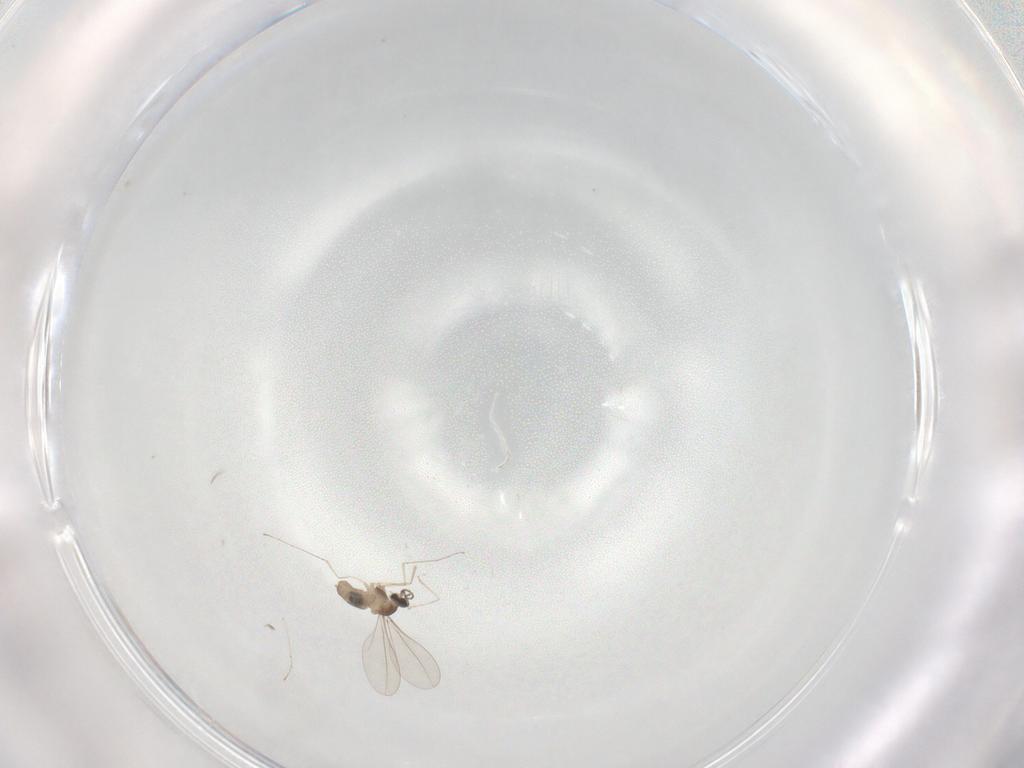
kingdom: Animalia
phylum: Arthropoda
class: Insecta
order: Diptera
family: Cecidomyiidae
